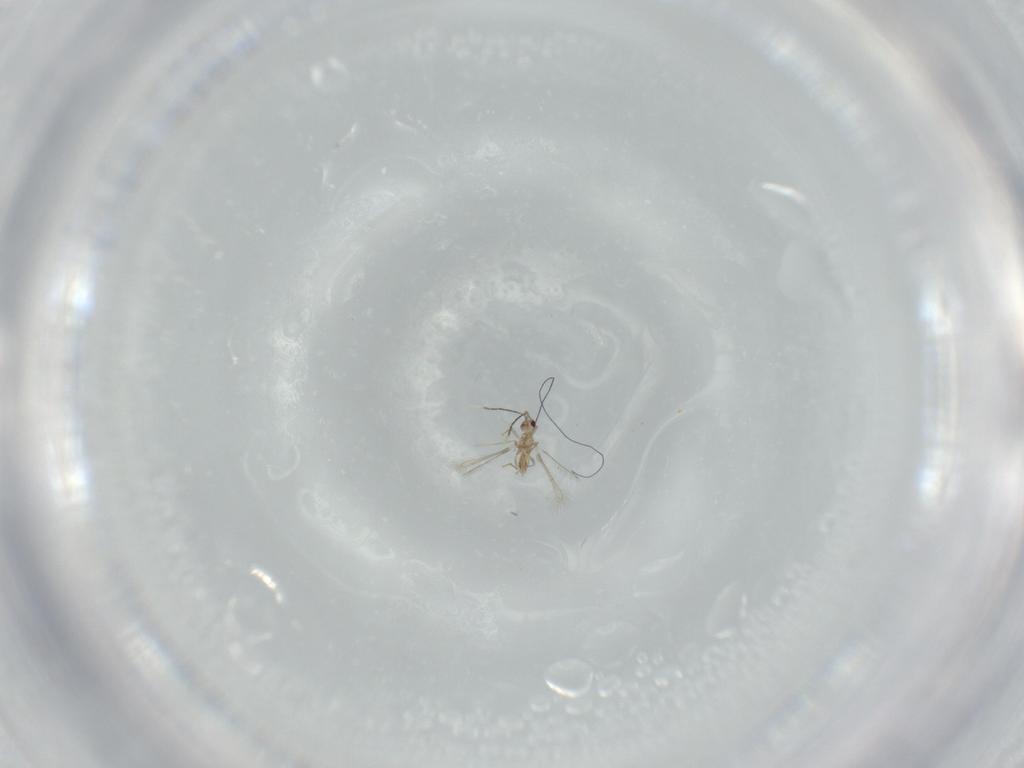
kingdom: Animalia
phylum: Arthropoda
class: Insecta
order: Hymenoptera
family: Mymaridae
